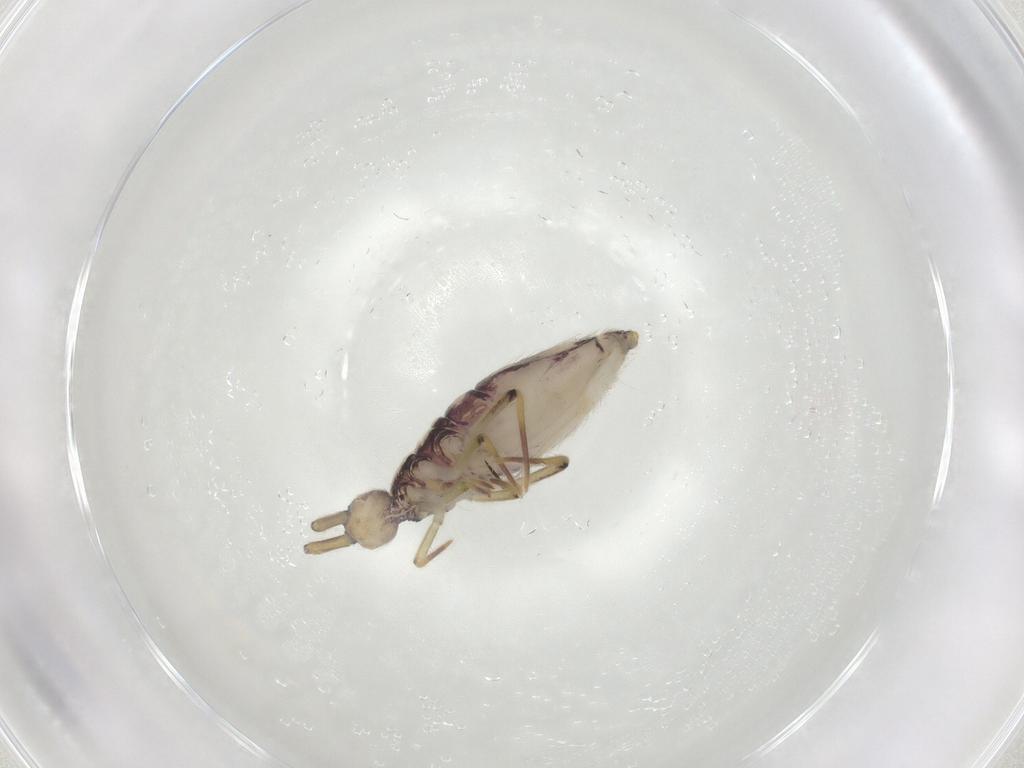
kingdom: Animalia
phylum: Arthropoda
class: Collembola
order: Entomobryomorpha
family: Entomobryidae
